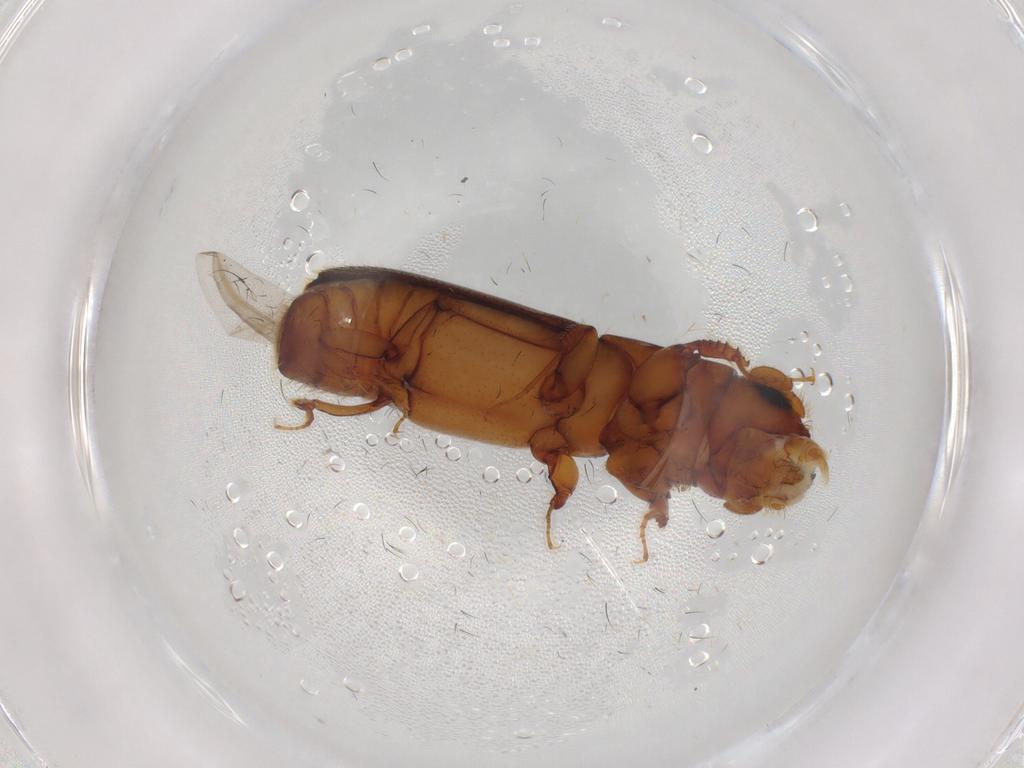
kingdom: Animalia
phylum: Arthropoda
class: Insecta
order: Coleoptera
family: Curculionidae
